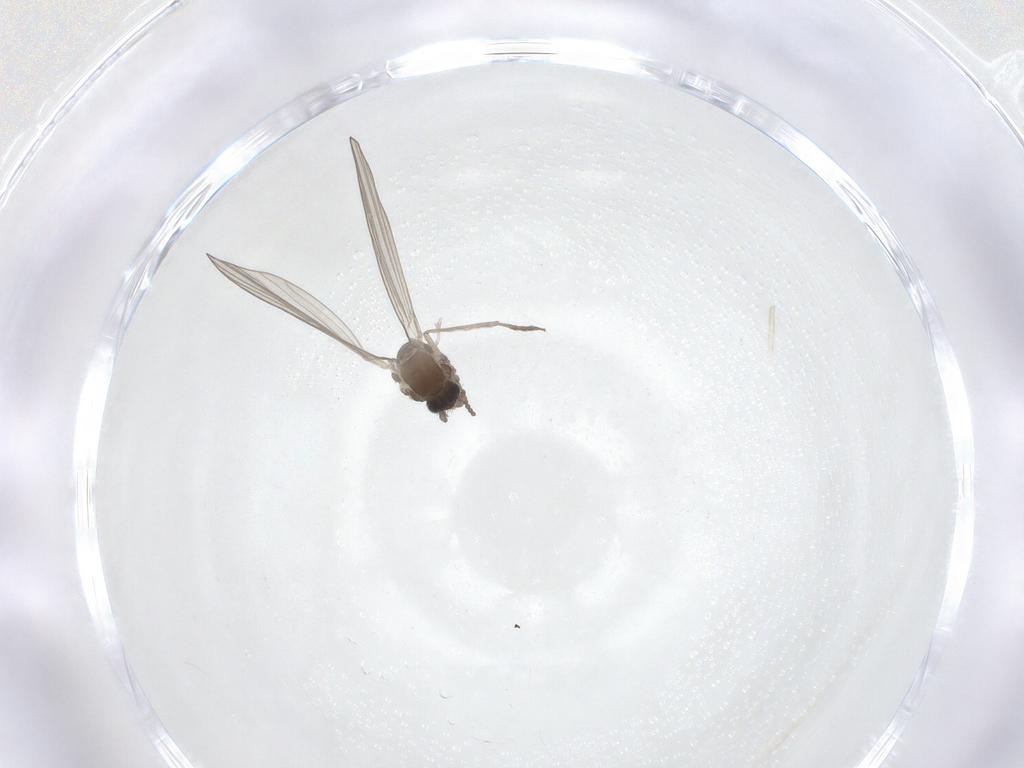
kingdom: Animalia
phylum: Arthropoda
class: Insecta
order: Diptera
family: Psychodidae
